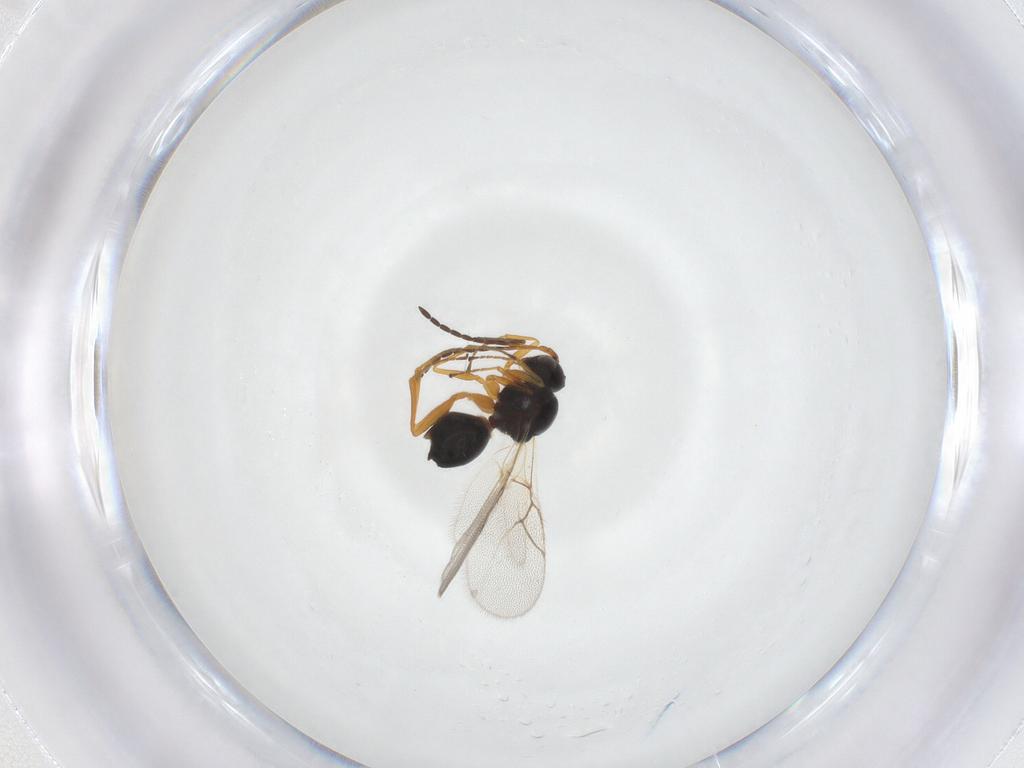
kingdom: Animalia
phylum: Arthropoda
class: Insecta
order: Hymenoptera
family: Figitidae
